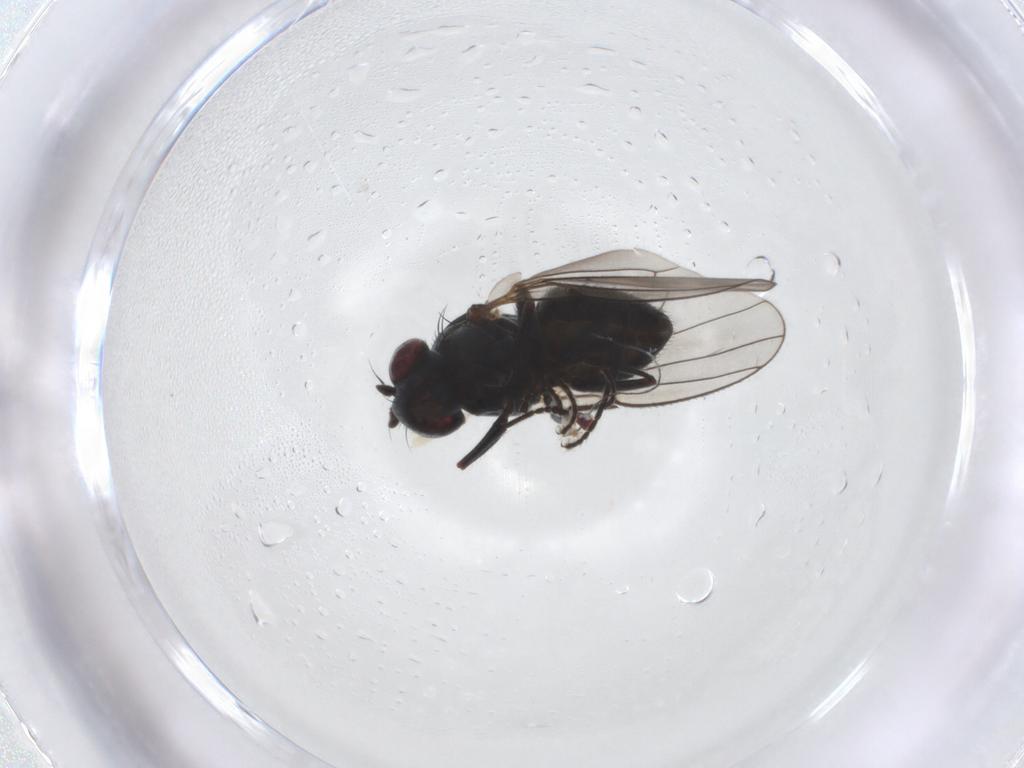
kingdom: Animalia
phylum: Arthropoda
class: Insecta
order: Diptera
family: Ephydridae
